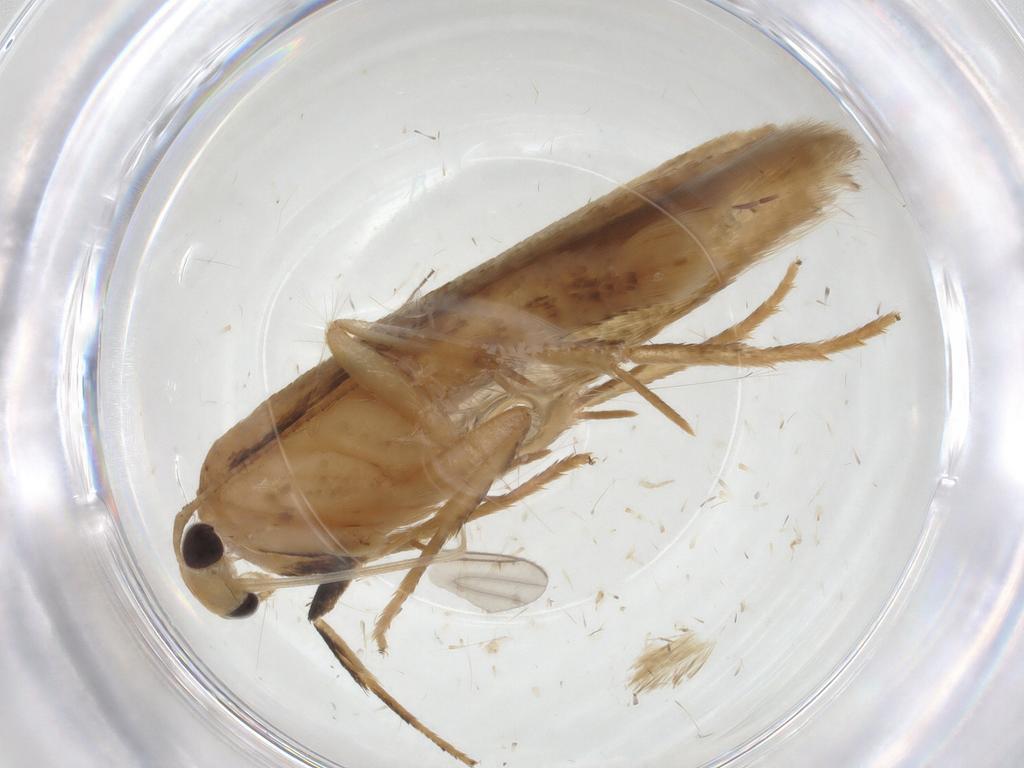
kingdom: Animalia
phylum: Arthropoda
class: Insecta
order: Lepidoptera
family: Stathmopodidae
